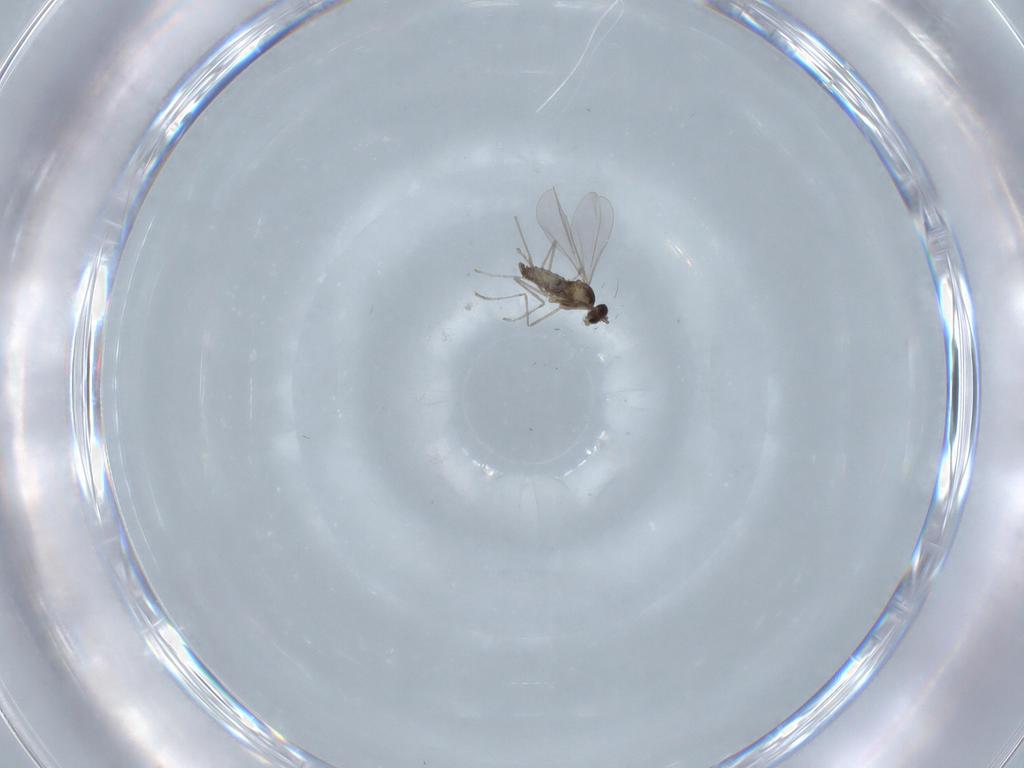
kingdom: Animalia
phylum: Arthropoda
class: Insecta
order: Diptera
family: Cecidomyiidae
